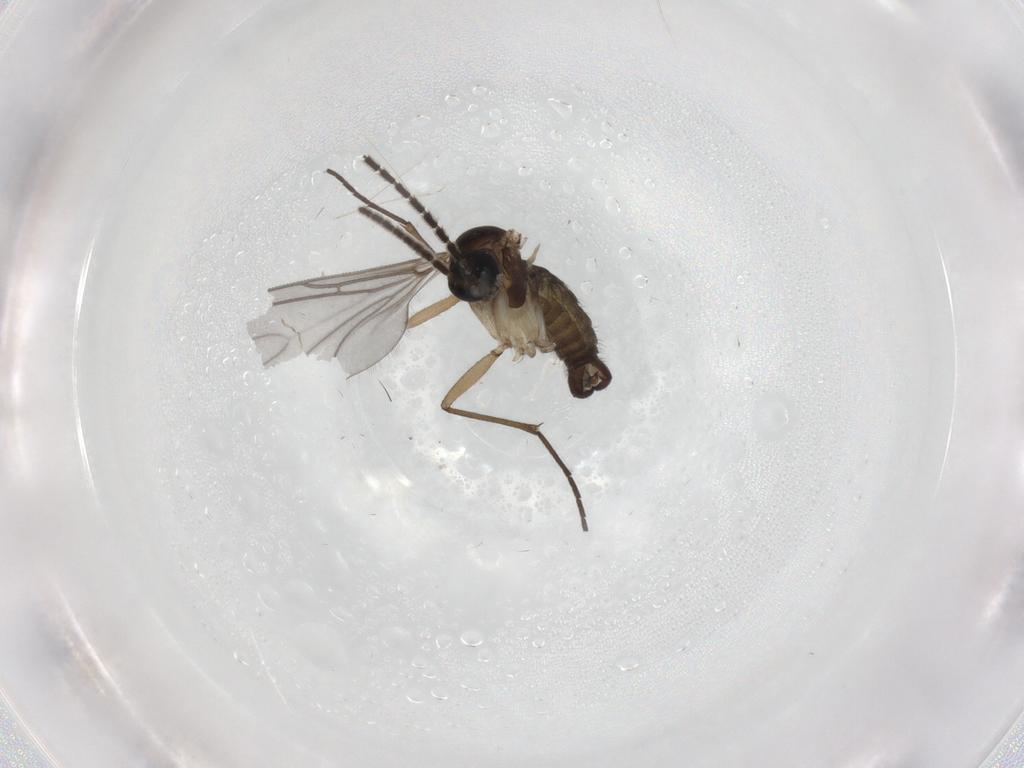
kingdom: Animalia
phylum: Arthropoda
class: Insecta
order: Diptera
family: Sciaridae
